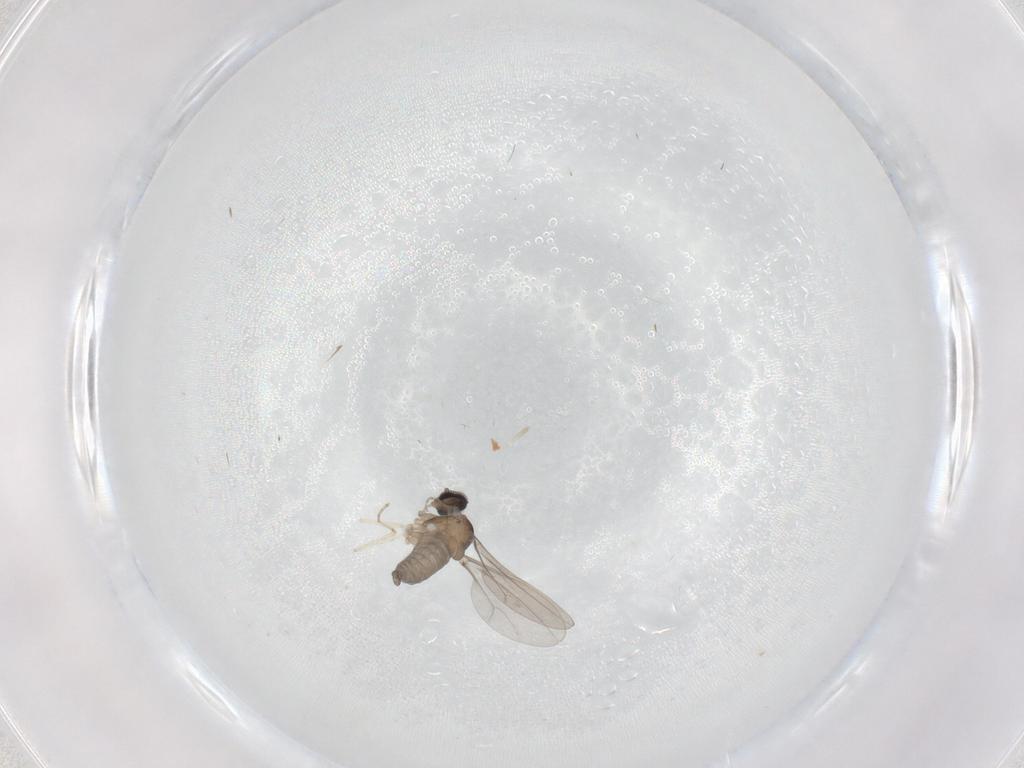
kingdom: Animalia
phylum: Arthropoda
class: Insecta
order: Diptera
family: Cecidomyiidae
